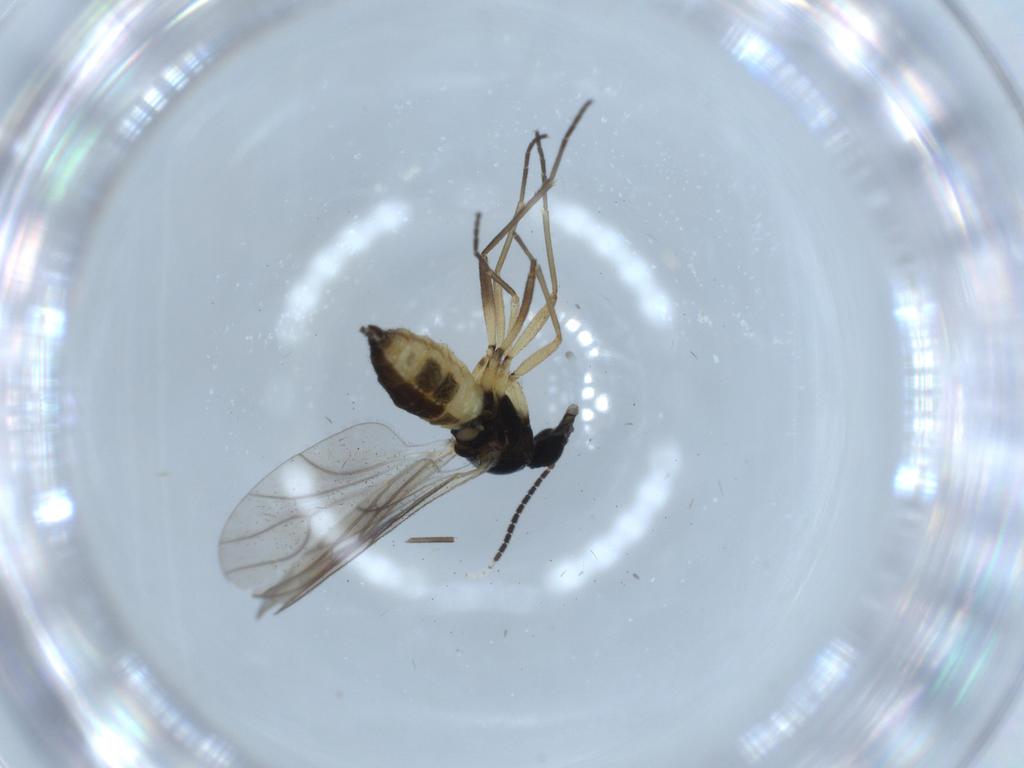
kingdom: Animalia
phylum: Arthropoda
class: Insecta
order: Diptera
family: Sciaridae
